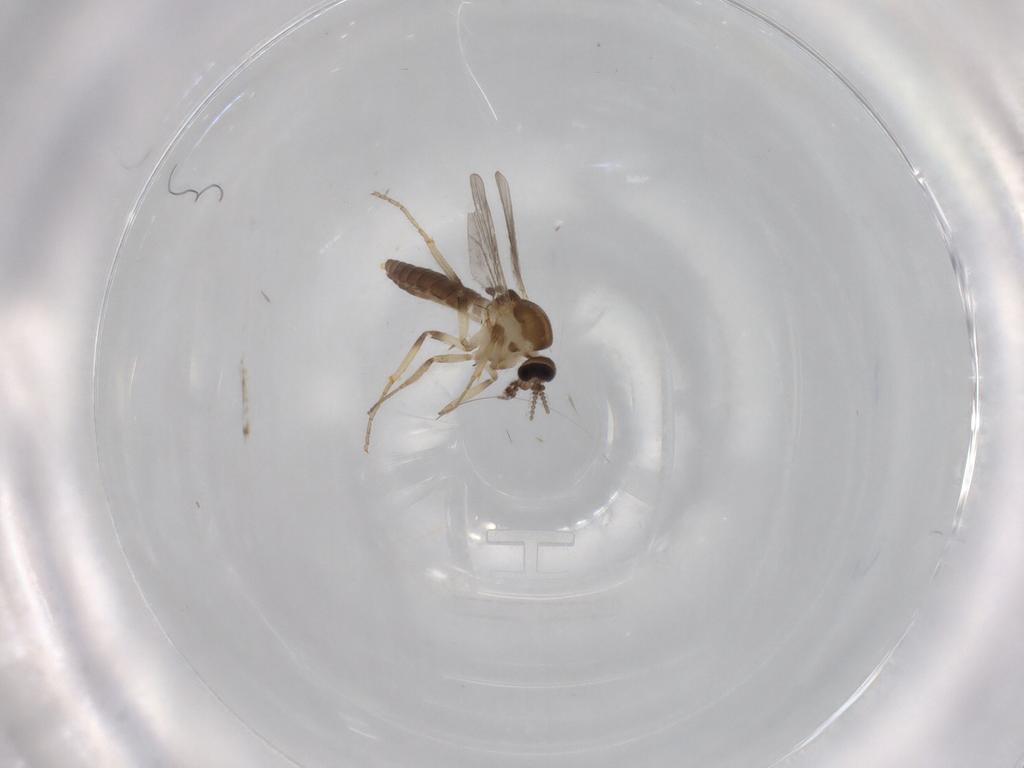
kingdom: Animalia
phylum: Arthropoda
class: Insecta
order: Diptera
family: Ceratopogonidae
